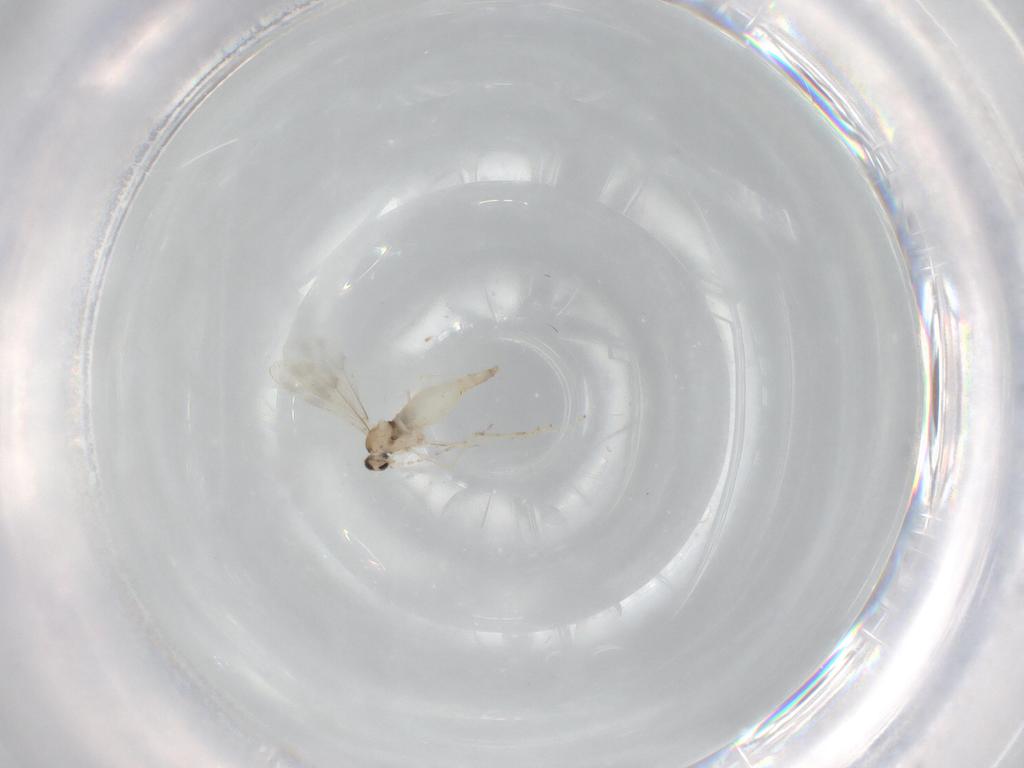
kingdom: Animalia
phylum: Arthropoda
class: Insecta
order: Diptera
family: Cecidomyiidae
